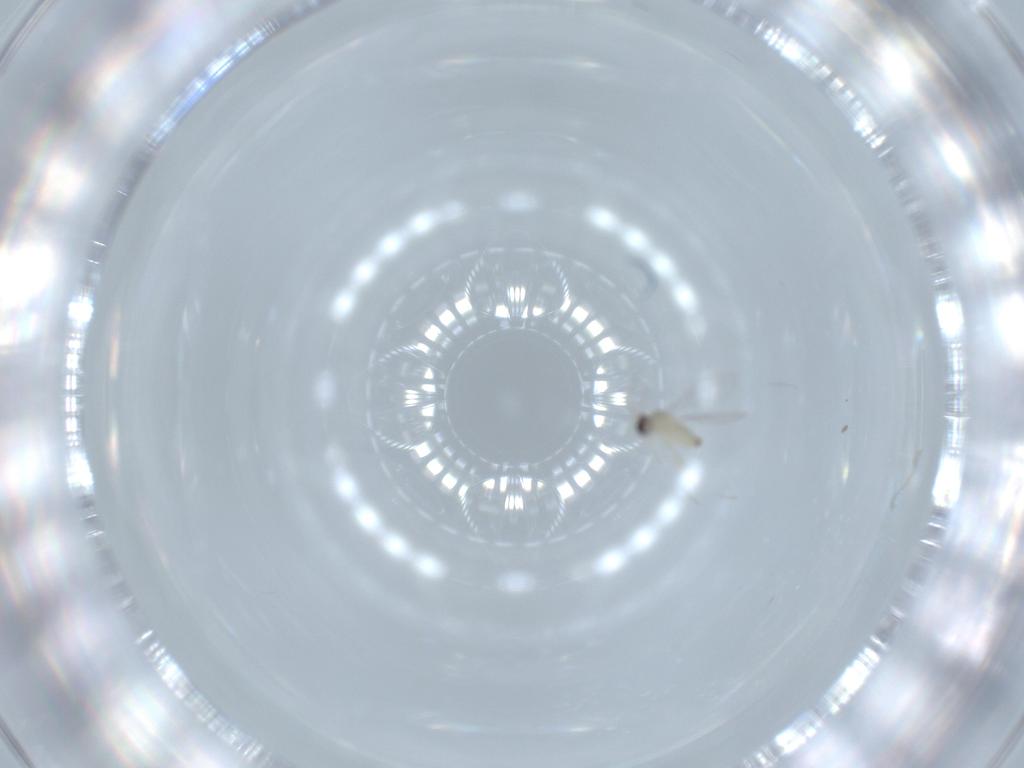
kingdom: Animalia
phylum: Arthropoda
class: Insecta
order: Diptera
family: Cecidomyiidae
